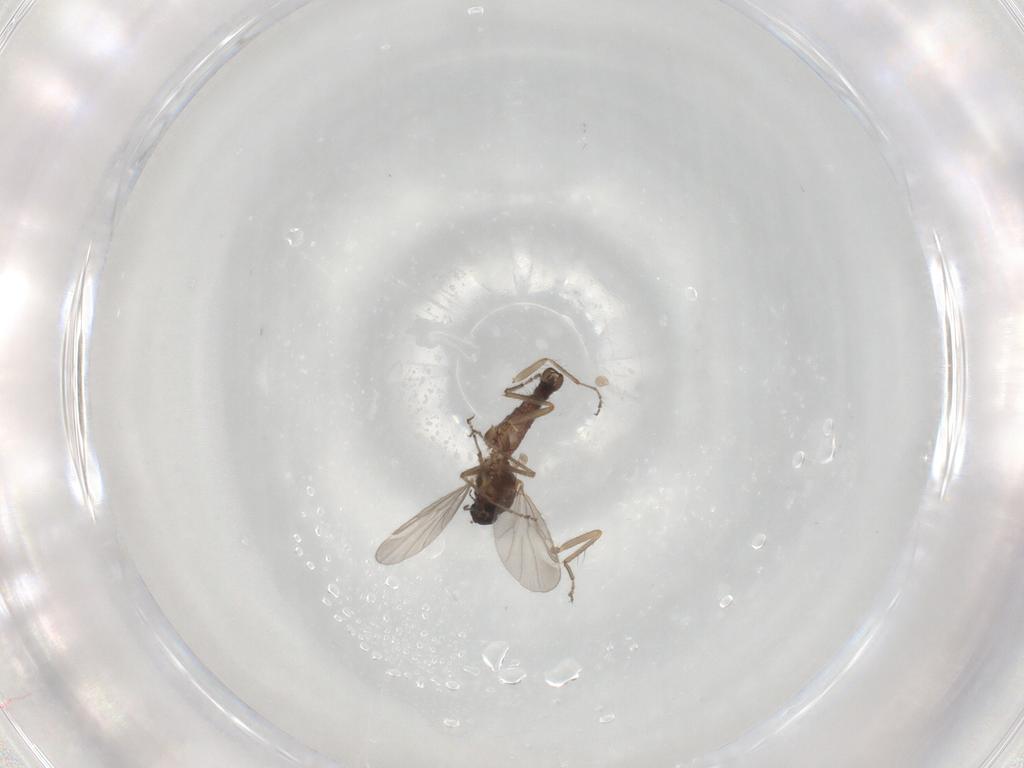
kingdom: Animalia
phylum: Arthropoda
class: Insecta
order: Diptera
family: Ceratopogonidae
